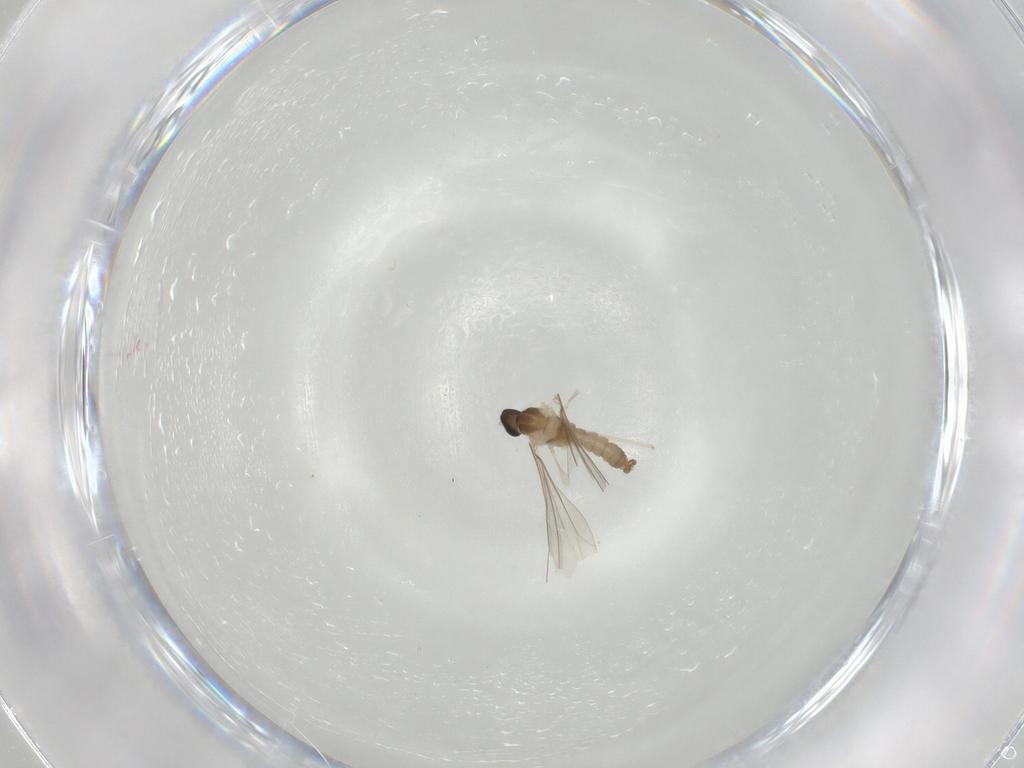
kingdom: Animalia
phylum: Arthropoda
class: Insecta
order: Diptera
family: Cecidomyiidae
